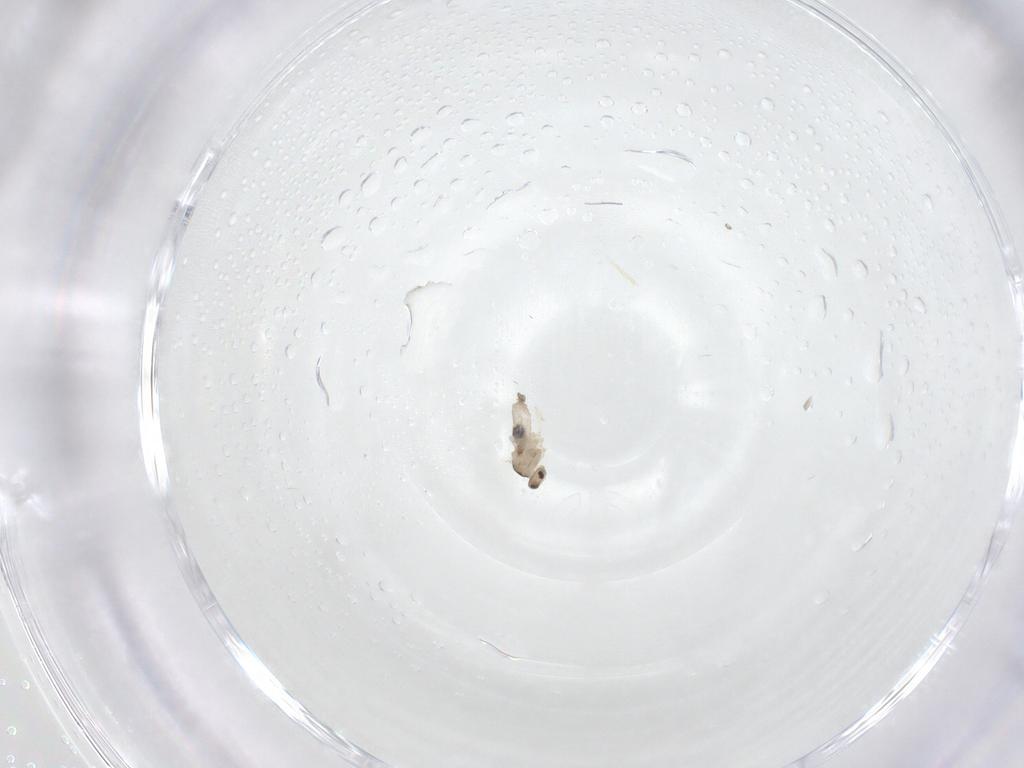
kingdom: Animalia
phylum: Arthropoda
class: Insecta
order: Diptera
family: Cecidomyiidae
